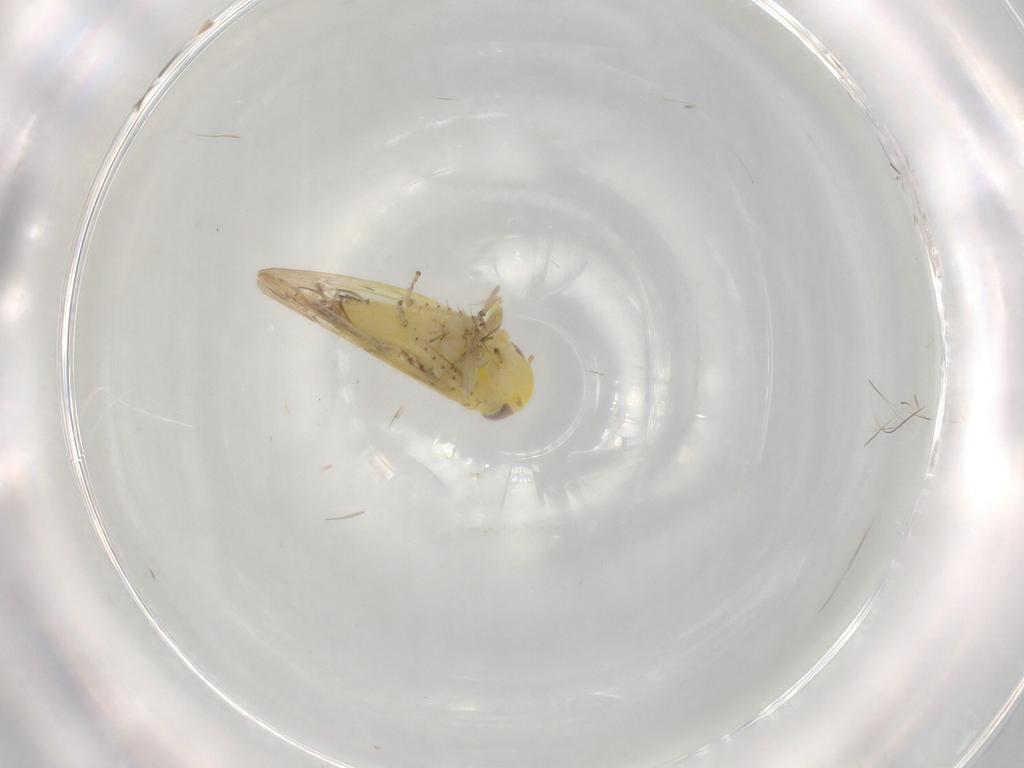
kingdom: Animalia
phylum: Arthropoda
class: Insecta
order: Hemiptera
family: Cicadellidae
